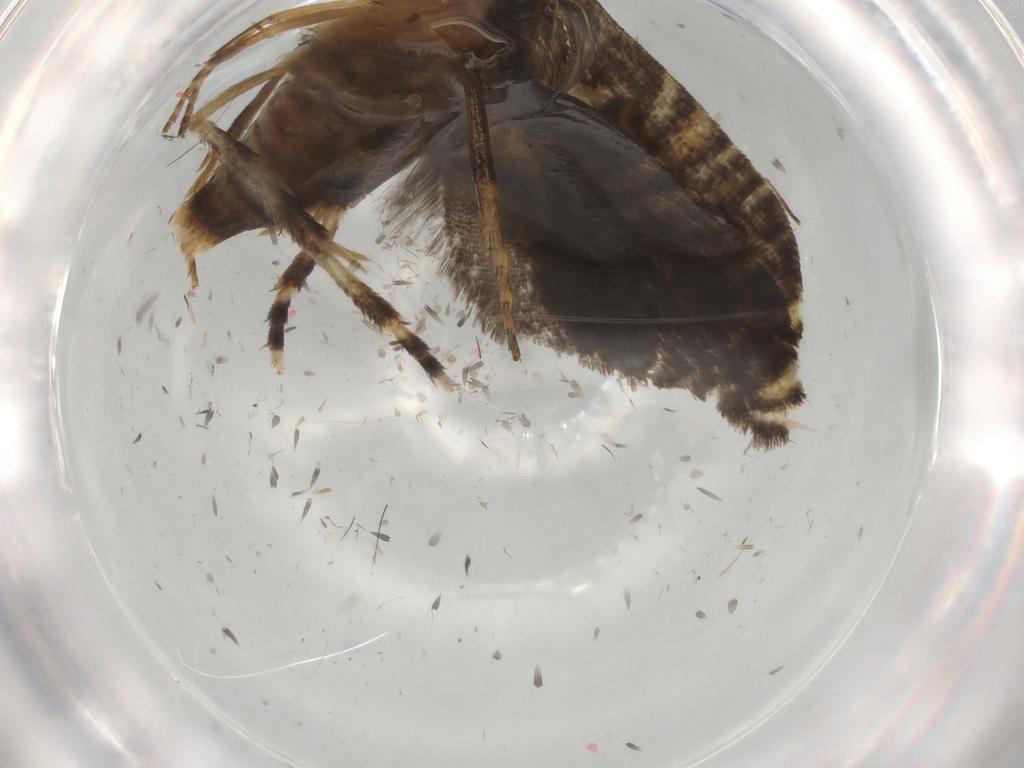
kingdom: Animalia
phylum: Arthropoda
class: Insecta
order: Lepidoptera
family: Glyphipterigidae
